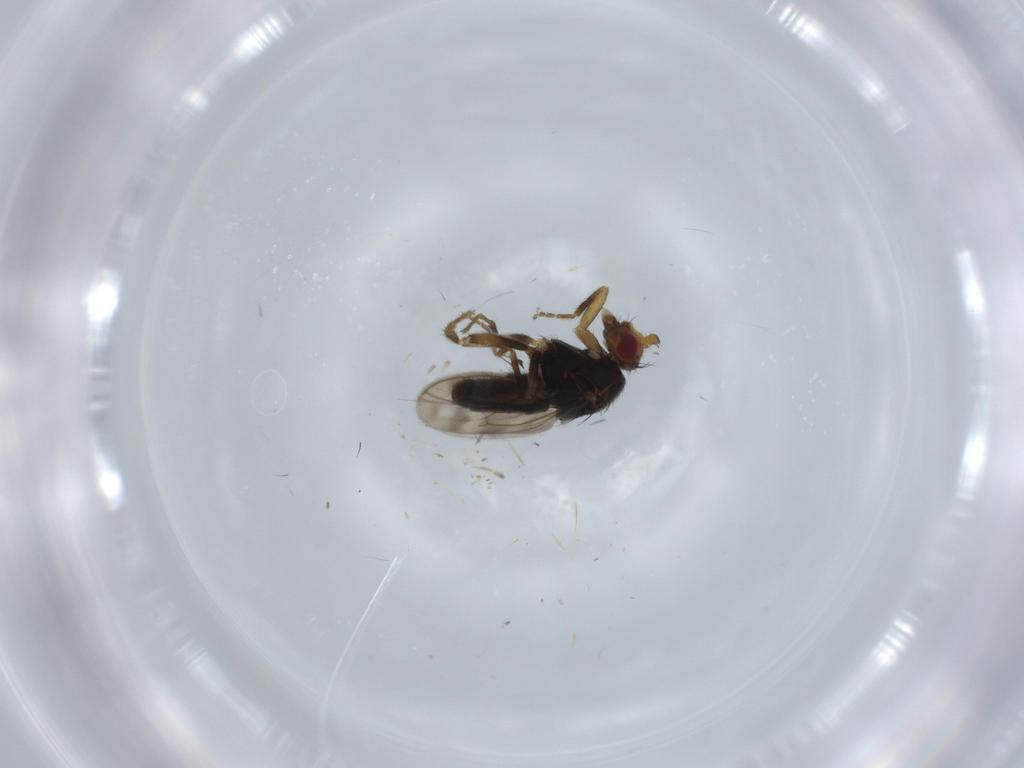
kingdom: Animalia
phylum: Arthropoda
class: Insecta
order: Diptera
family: Sphaeroceridae
